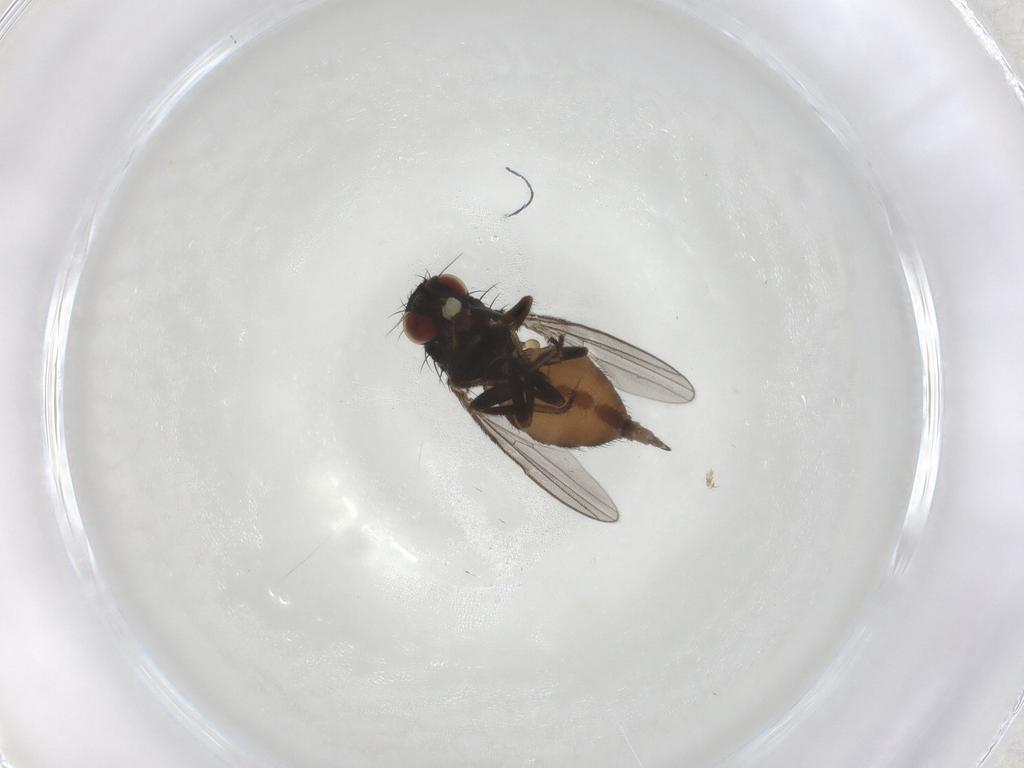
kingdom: Animalia
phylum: Arthropoda
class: Insecta
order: Diptera
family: Milichiidae
